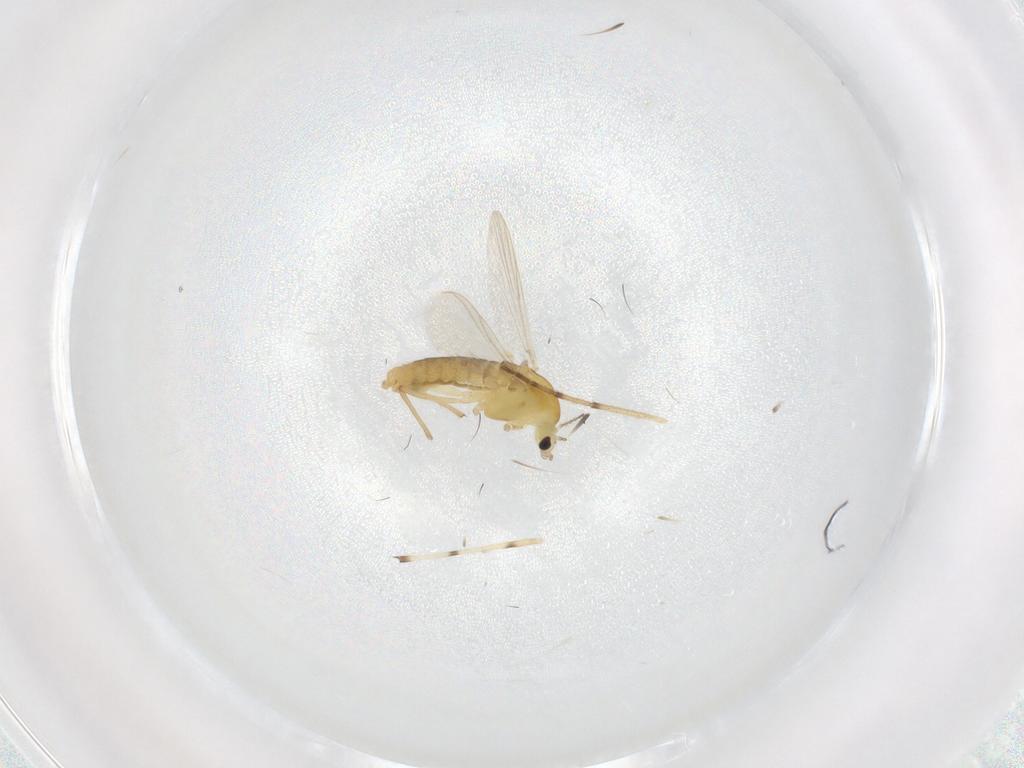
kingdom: Animalia
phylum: Arthropoda
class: Insecta
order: Diptera
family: Chironomidae
